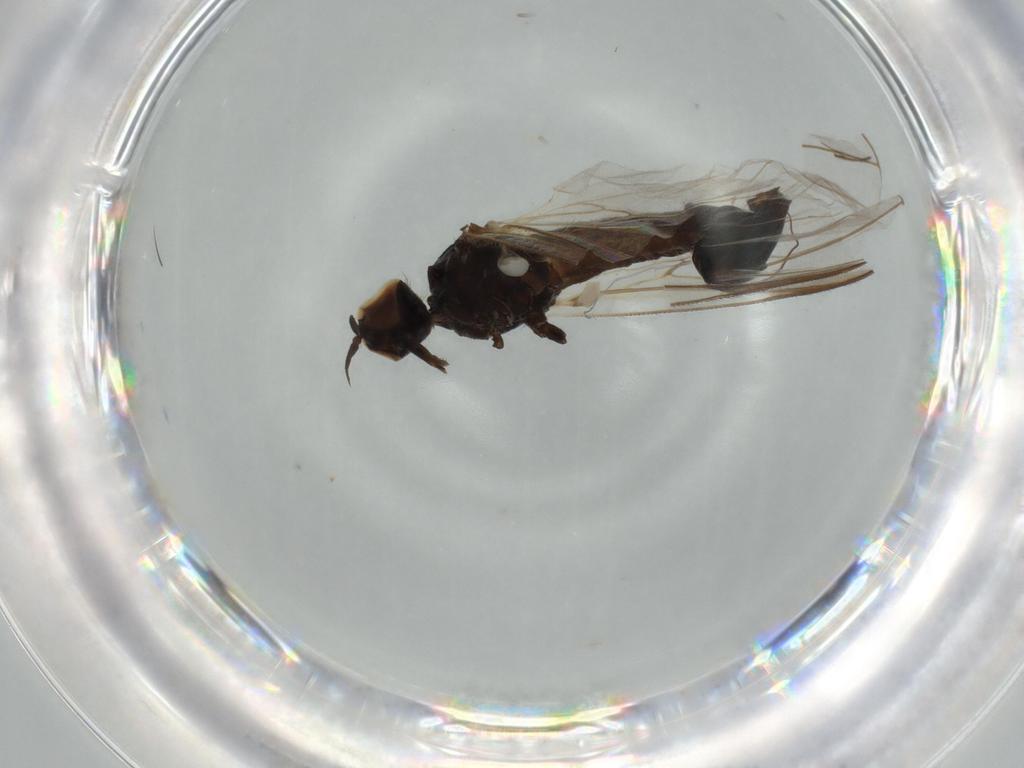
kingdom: Animalia
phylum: Arthropoda
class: Insecta
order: Diptera
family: Empididae
